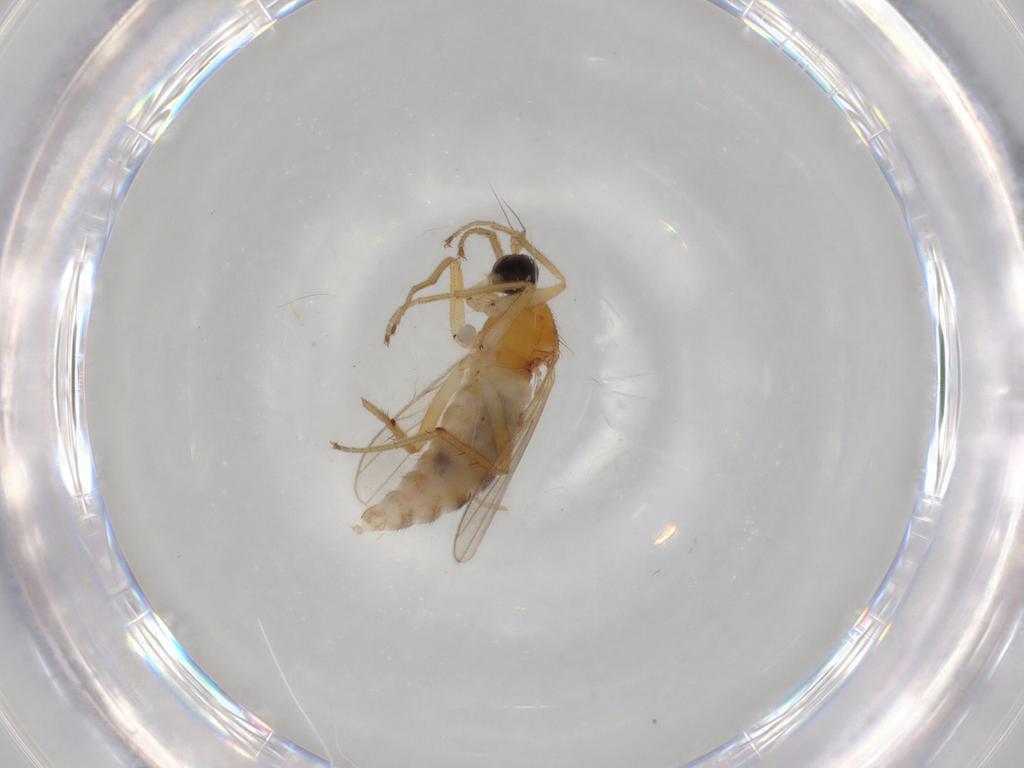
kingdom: Animalia
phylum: Arthropoda
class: Insecta
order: Diptera
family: Hybotidae
